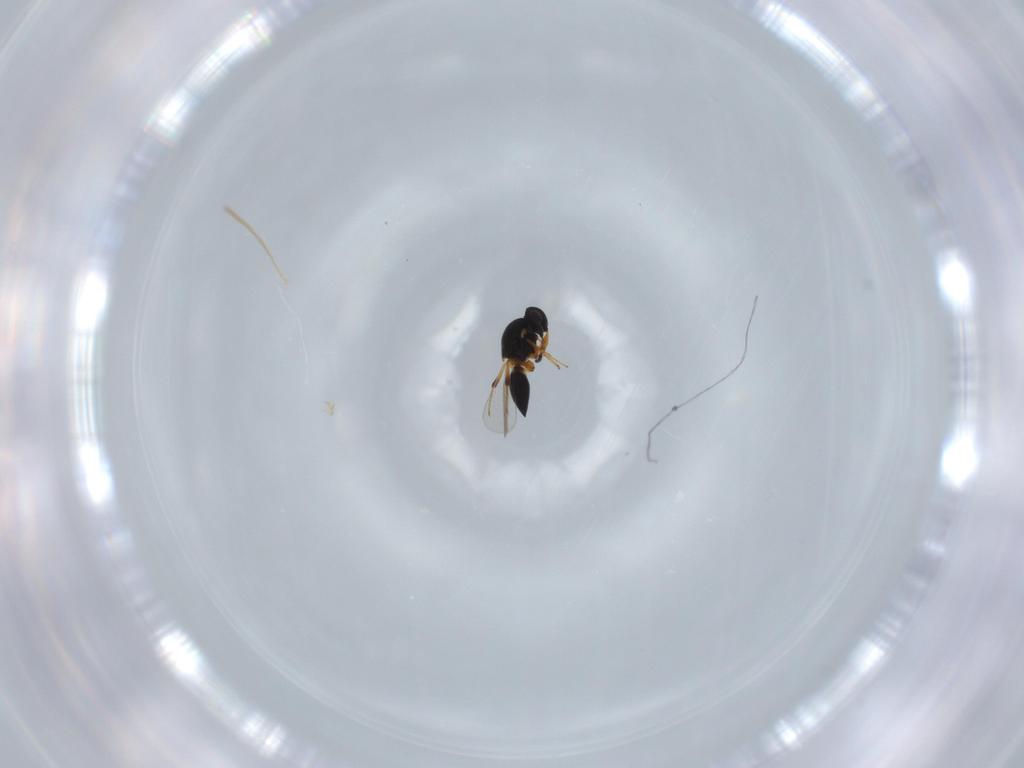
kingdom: Animalia
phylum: Arthropoda
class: Insecta
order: Hymenoptera
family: Platygastridae
